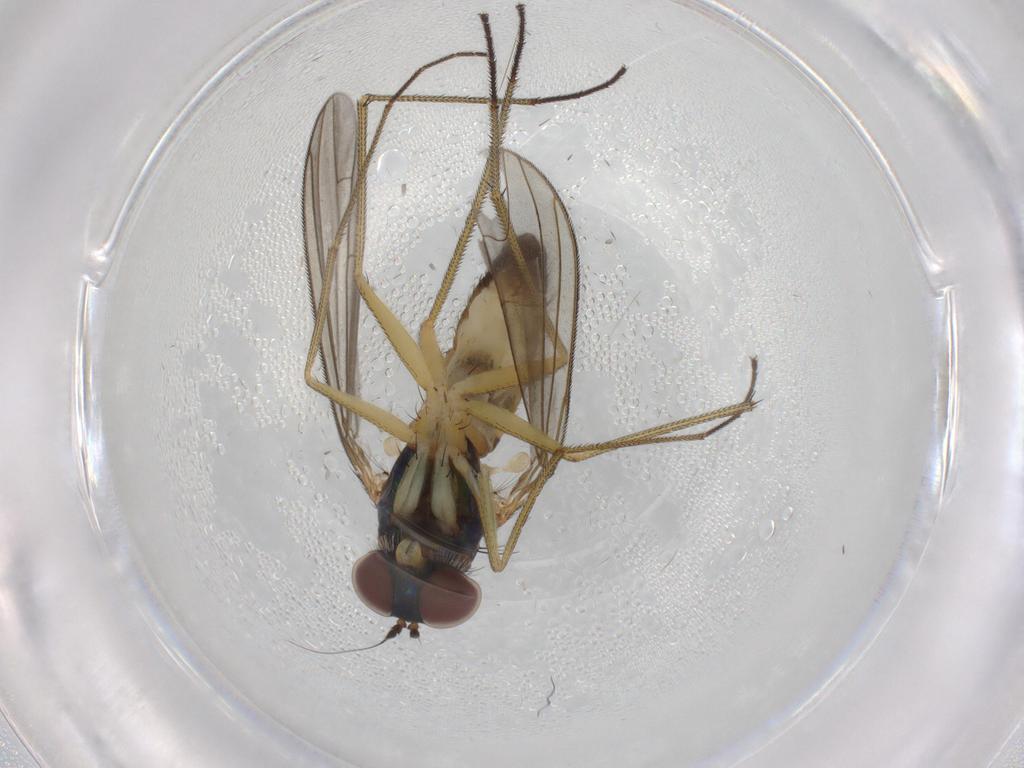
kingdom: Animalia
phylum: Arthropoda
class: Insecta
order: Diptera
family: Dolichopodidae
